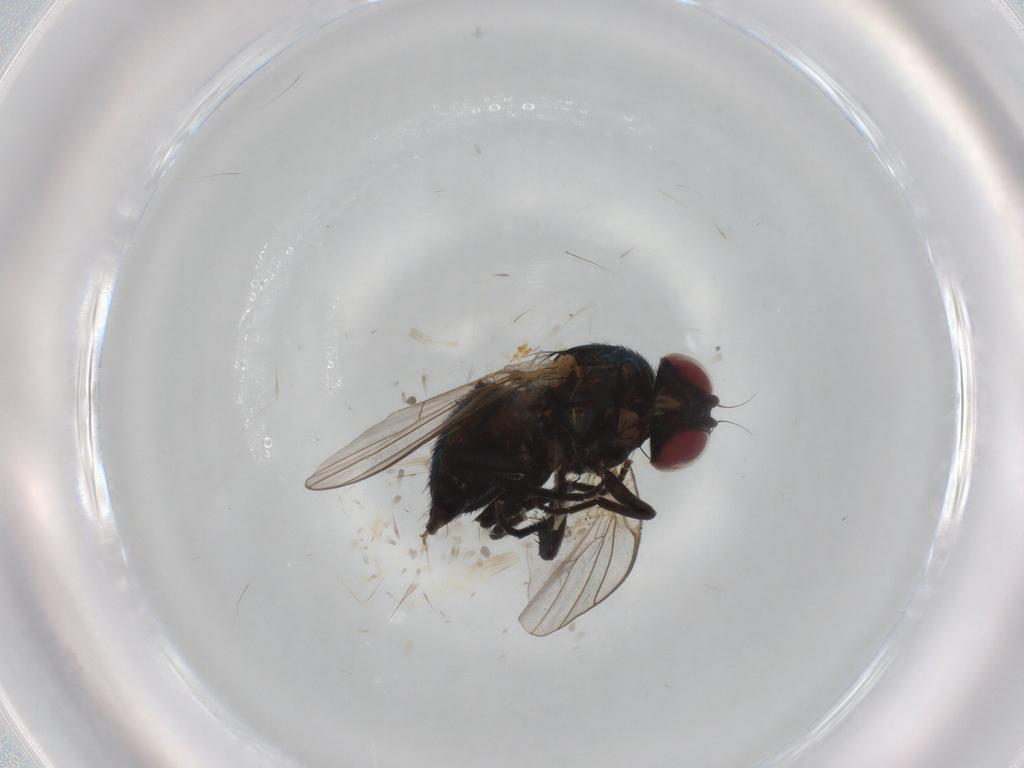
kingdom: Animalia
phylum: Arthropoda
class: Insecta
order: Diptera
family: Agromyzidae
